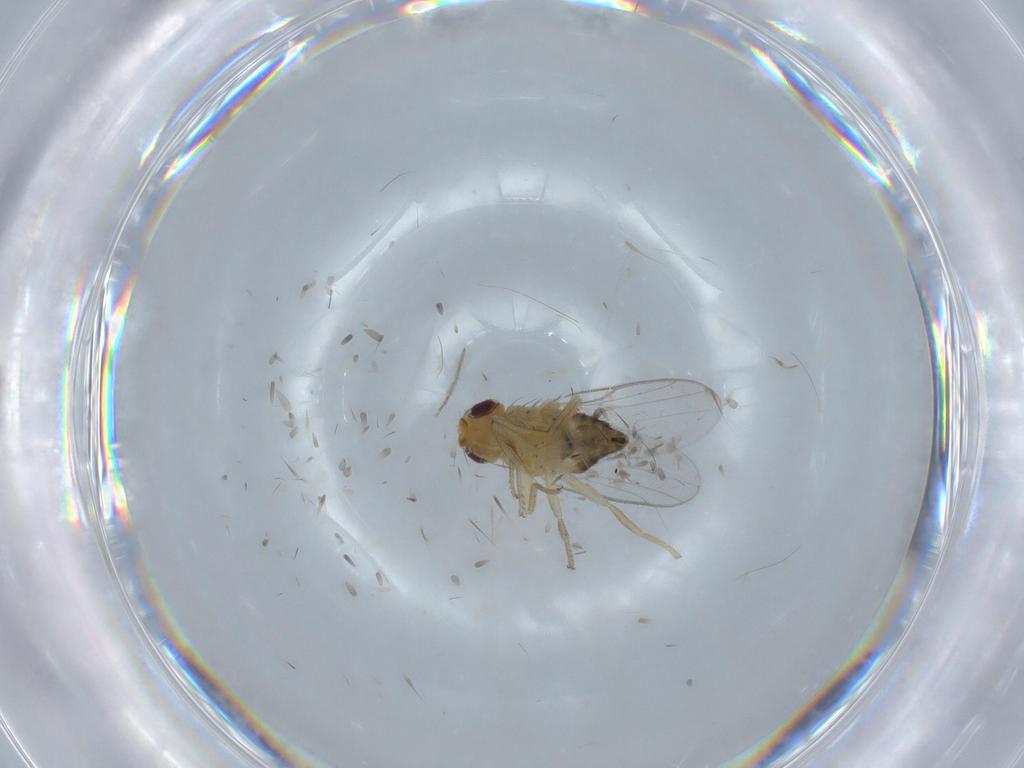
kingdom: Animalia
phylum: Arthropoda
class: Insecta
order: Diptera
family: Chloropidae
